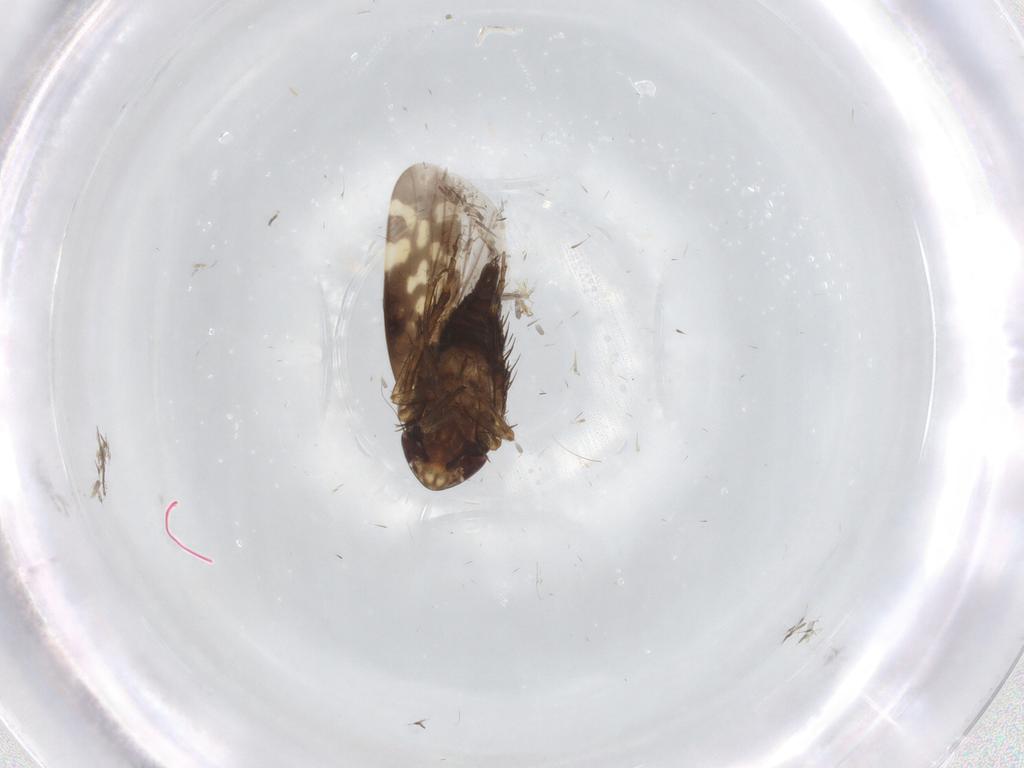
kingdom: Animalia
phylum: Arthropoda
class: Insecta
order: Hemiptera
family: Cicadellidae
